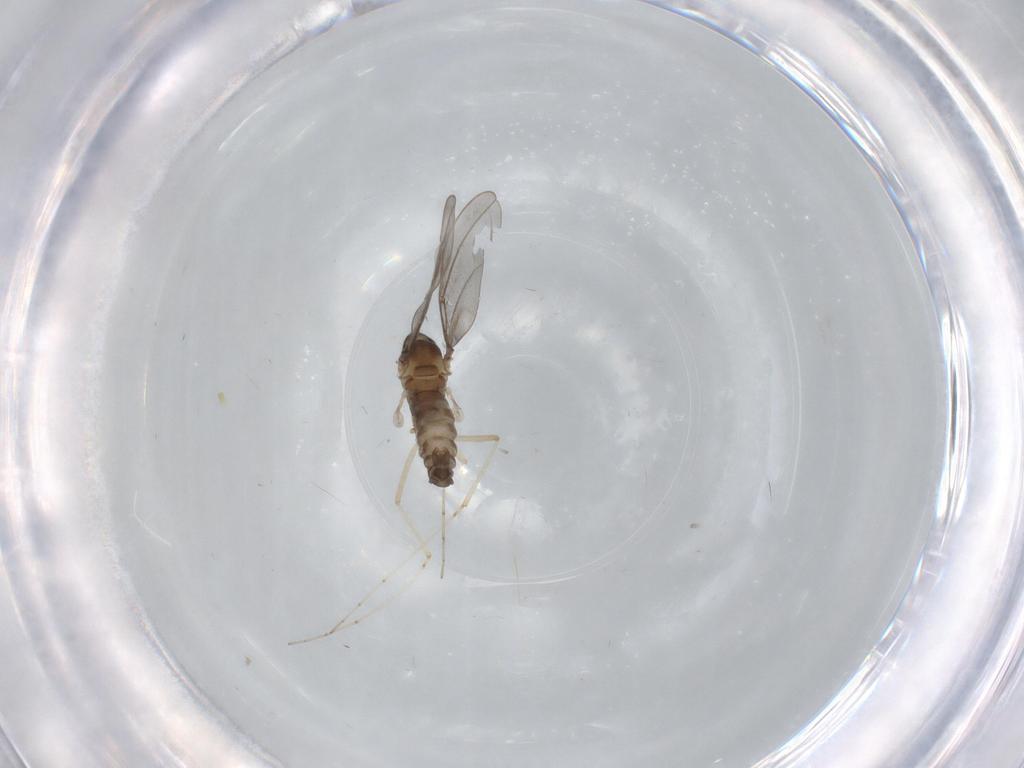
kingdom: Animalia
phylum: Arthropoda
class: Insecta
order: Diptera
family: Cecidomyiidae
